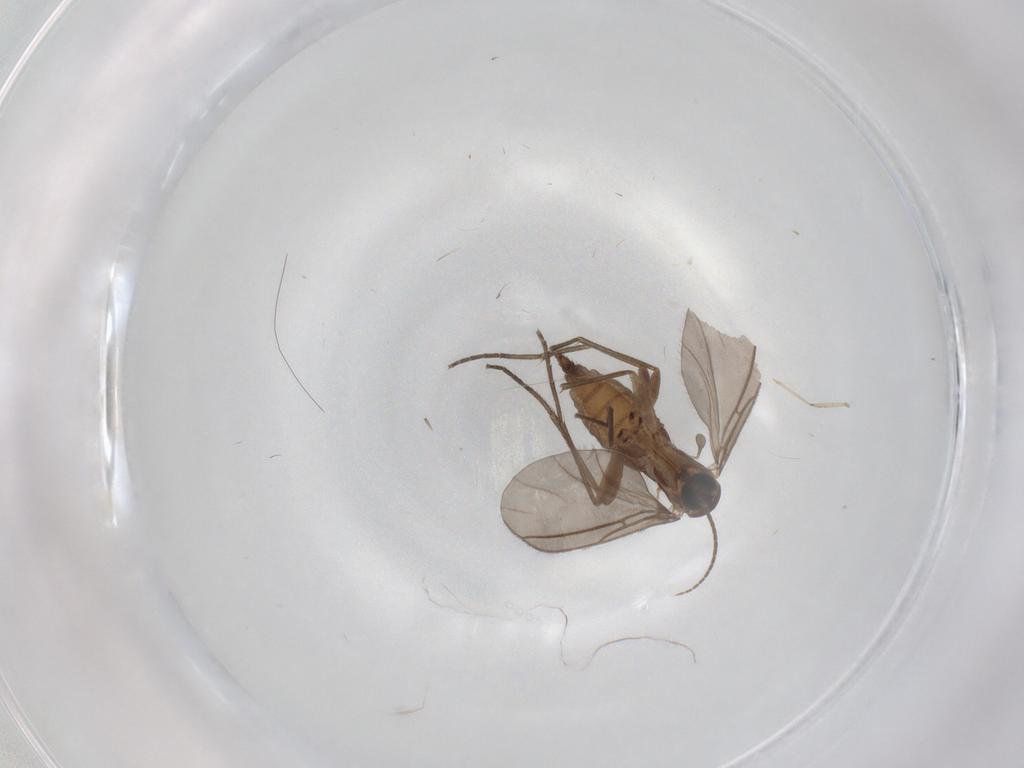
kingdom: Animalia
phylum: Arthropoda
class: Insecta
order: Diptera
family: Sciaridae
